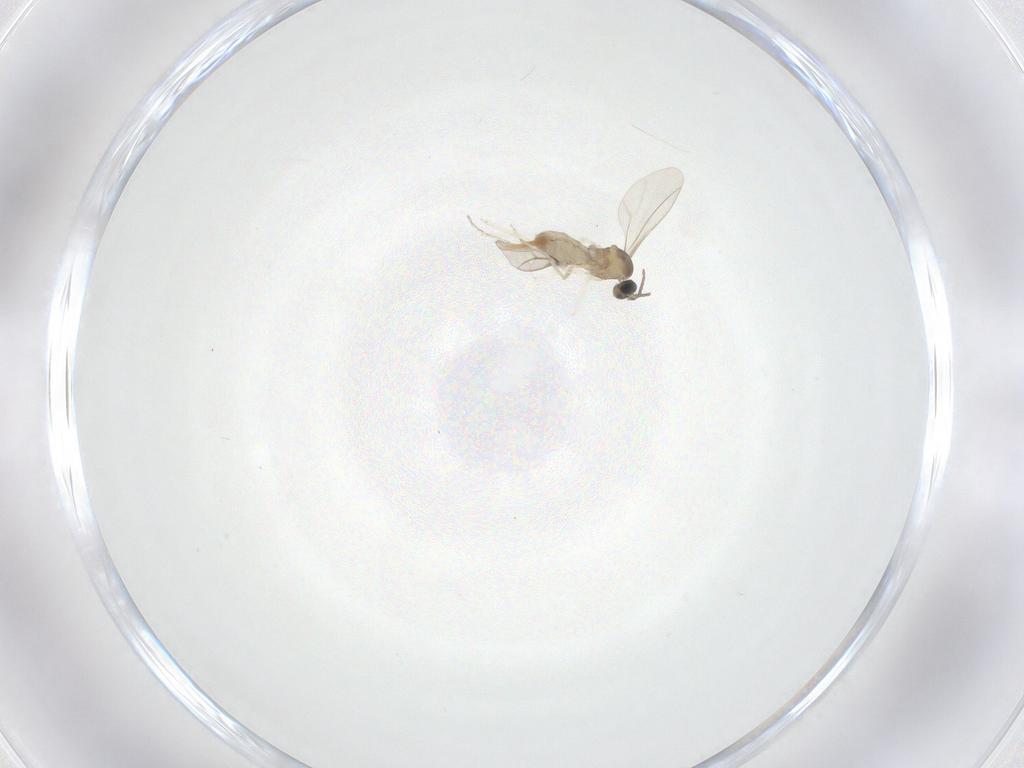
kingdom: Animalia
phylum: Arthropoda
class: Insecta
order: Diptera
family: Cecidomyiidae
